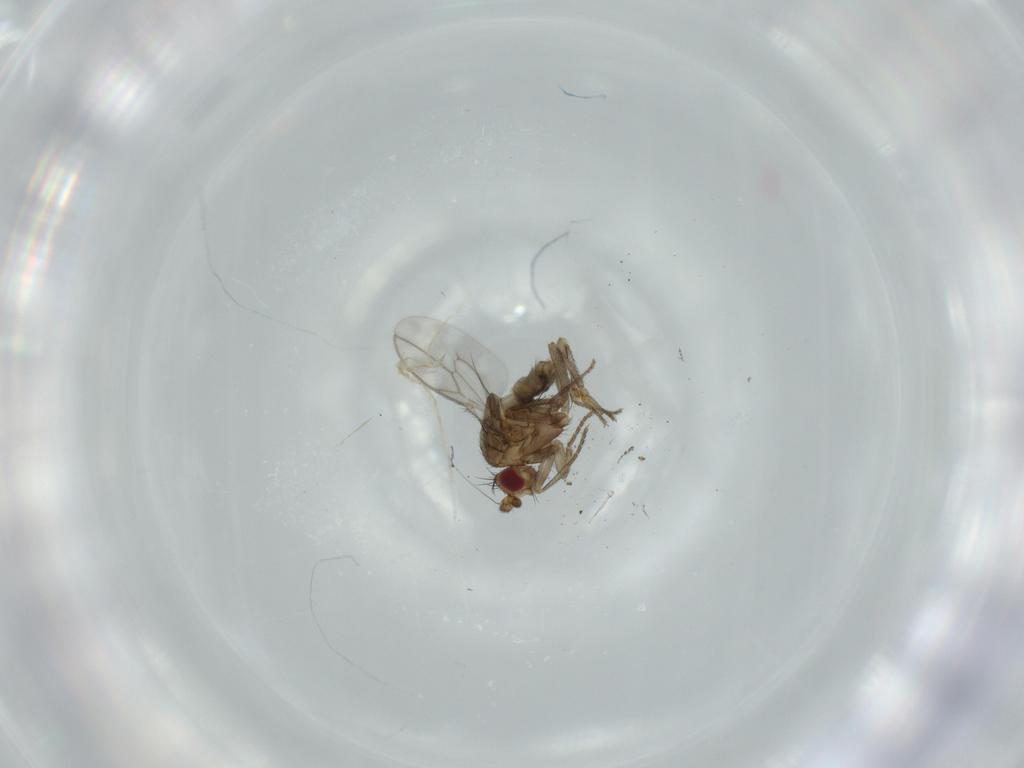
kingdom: Animalia
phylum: Arthropoda
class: Insecta
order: Diptera
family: Sphaeroceridae
